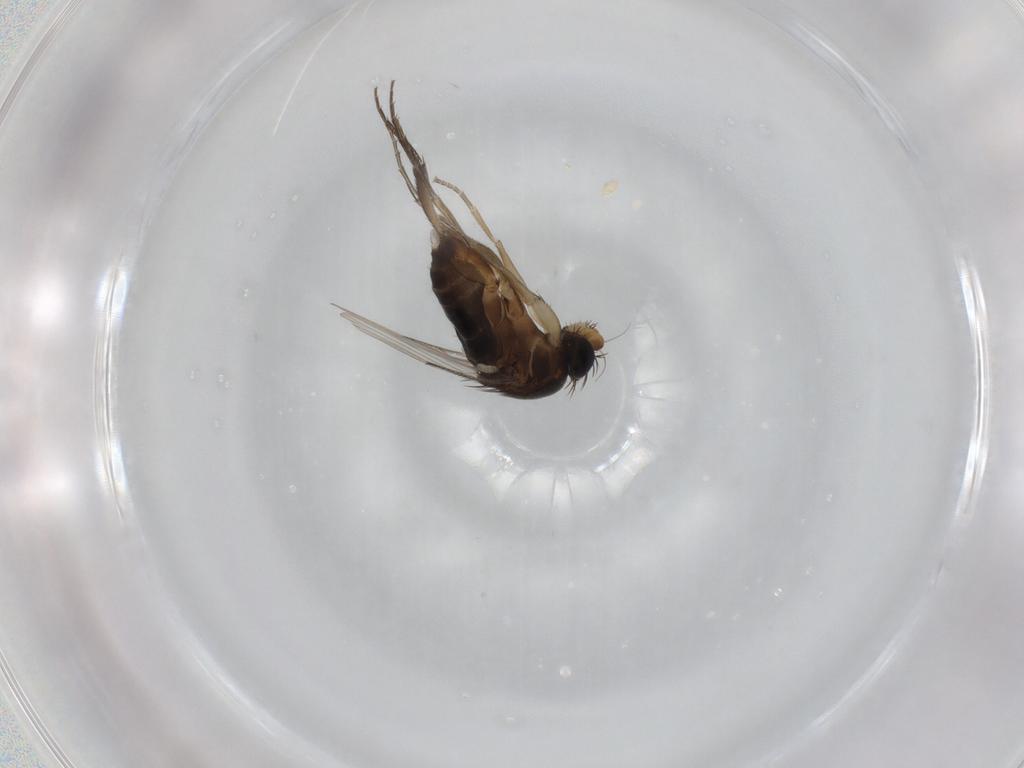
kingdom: Animalia
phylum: Arthropoda
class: Insecta
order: Diptera
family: Phoridae
